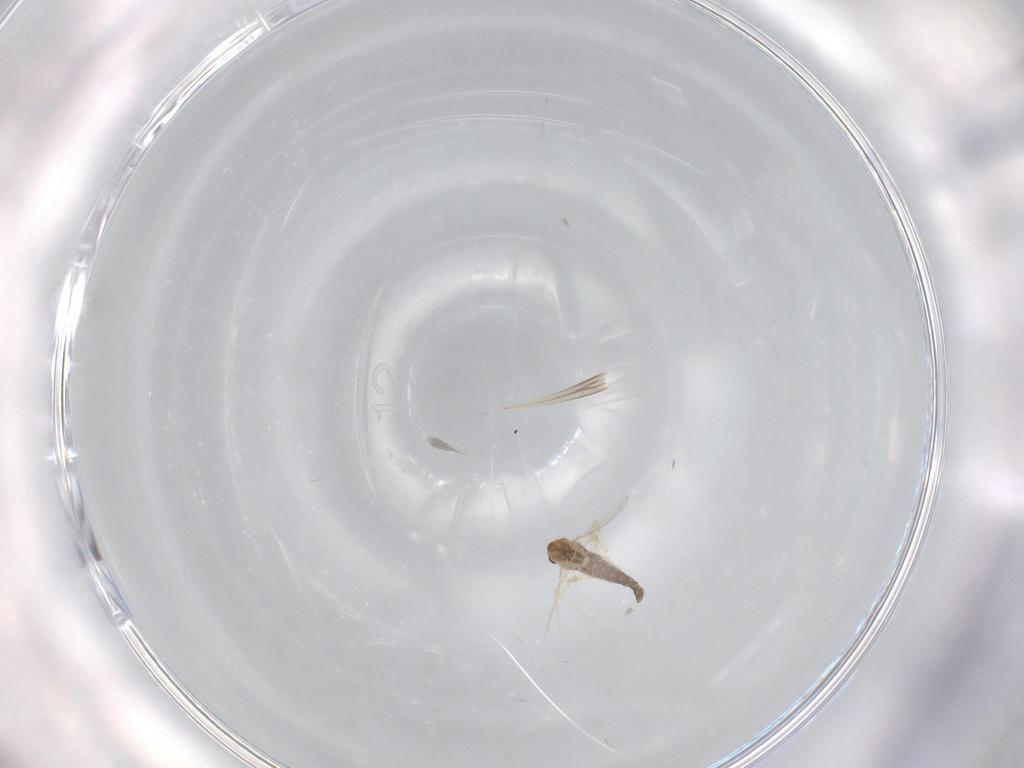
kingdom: Animalia
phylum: Arthropoda
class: Insecta
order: Diptera
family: Chironomidae
